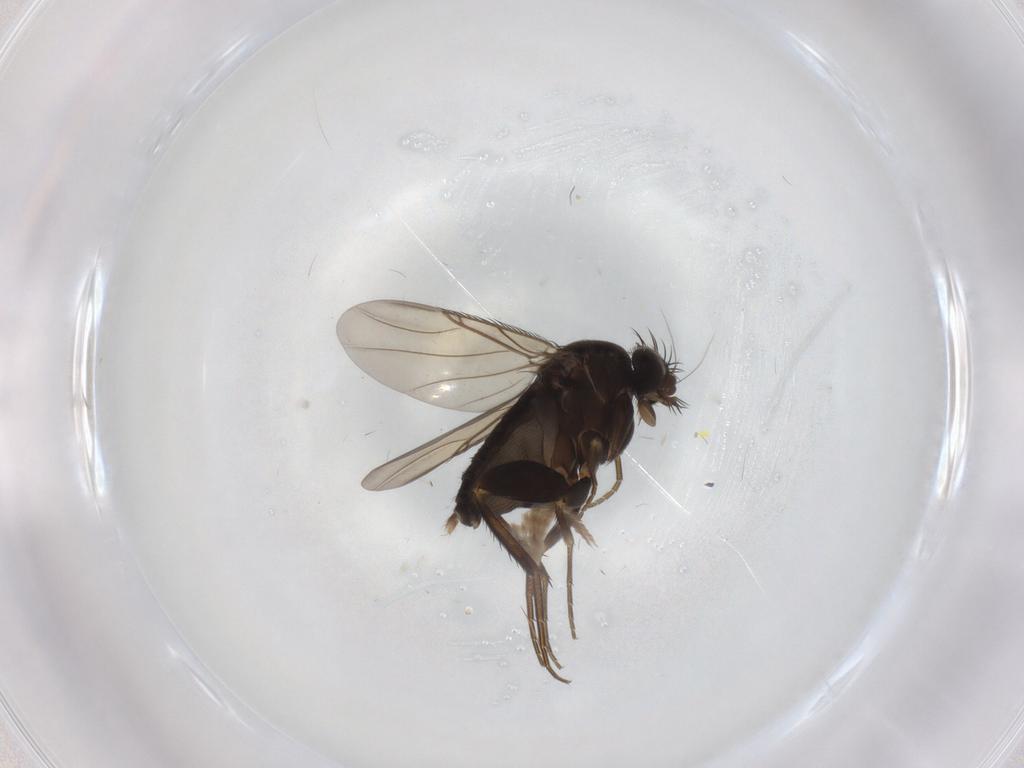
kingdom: Animalia
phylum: Arthropoda
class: Insecta
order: Diptera
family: Phoridae
